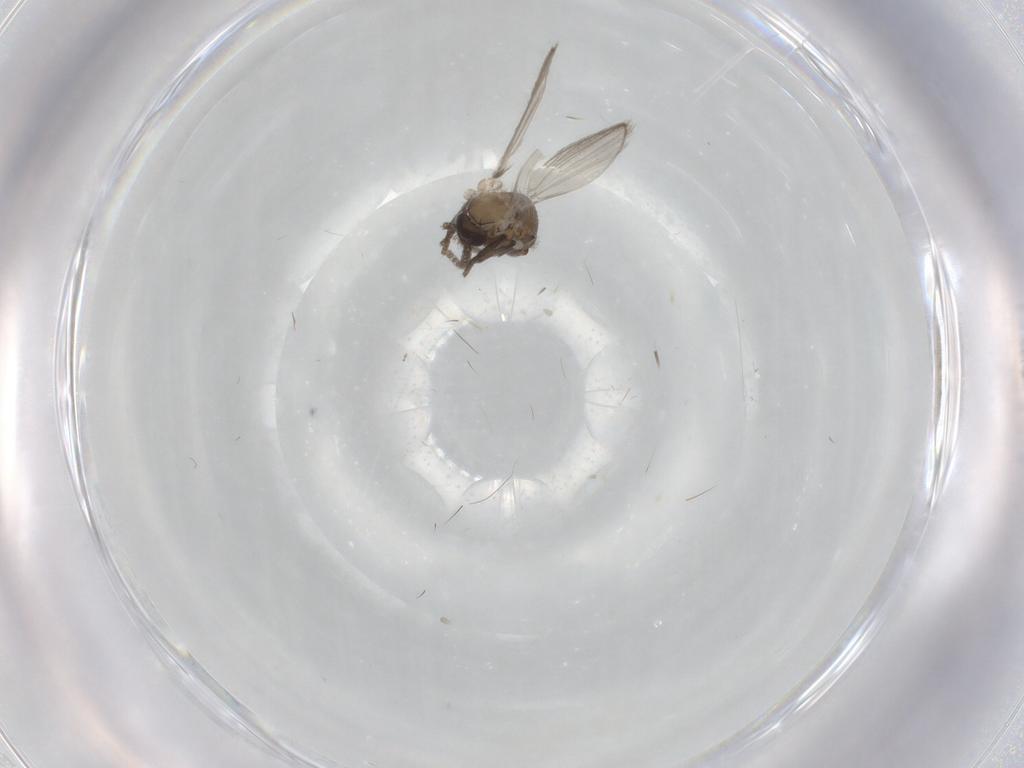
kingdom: Animalia
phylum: Arthropoda
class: Insecta
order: Diptera
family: Psychodidae
